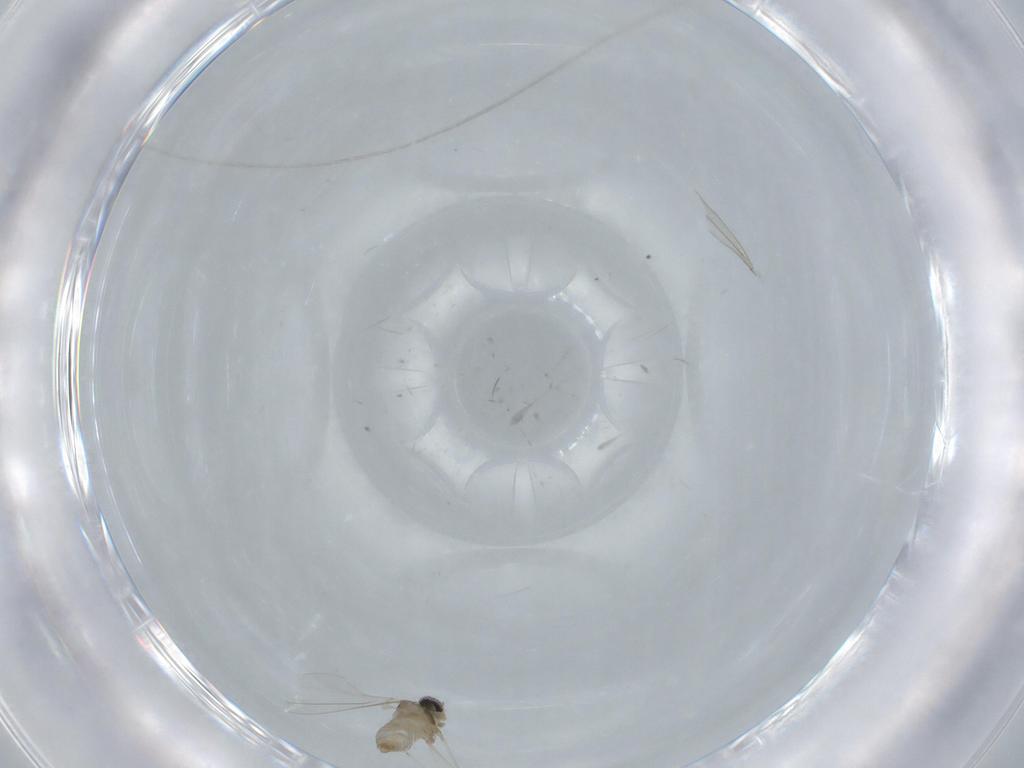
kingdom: Animalia
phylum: Arthropoda
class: Insecta
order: Diptera
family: Cecidomyiidae
